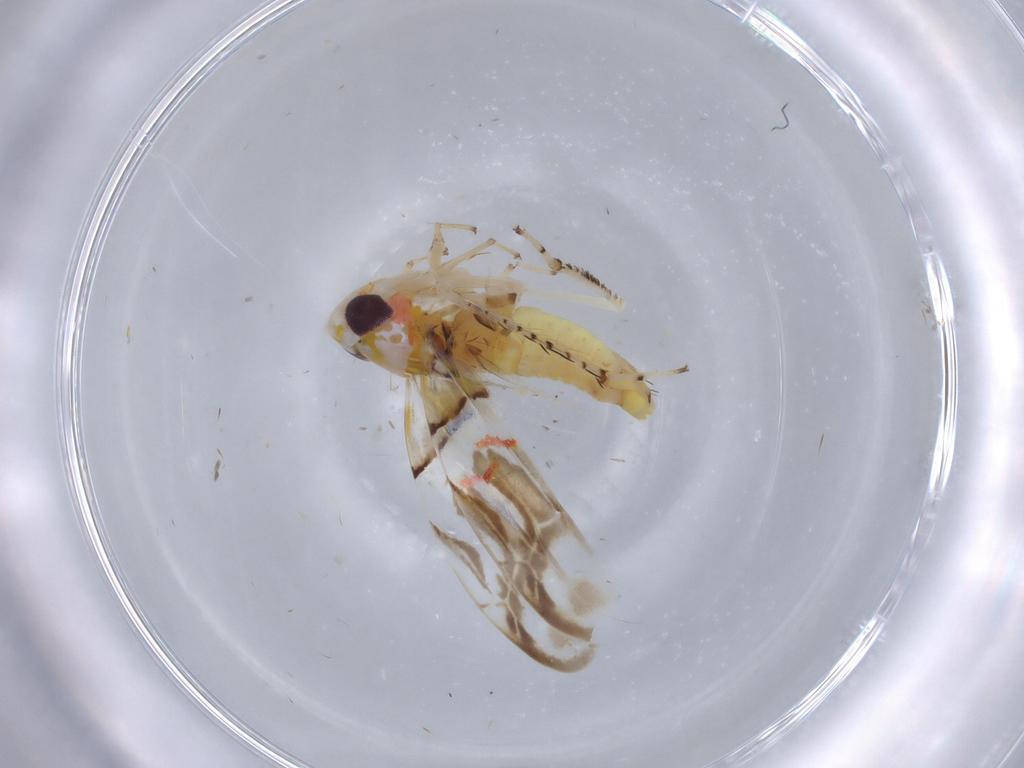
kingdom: Animalia
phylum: Arthropoda
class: Insecta
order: Hemiptera
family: Cicadellidae
